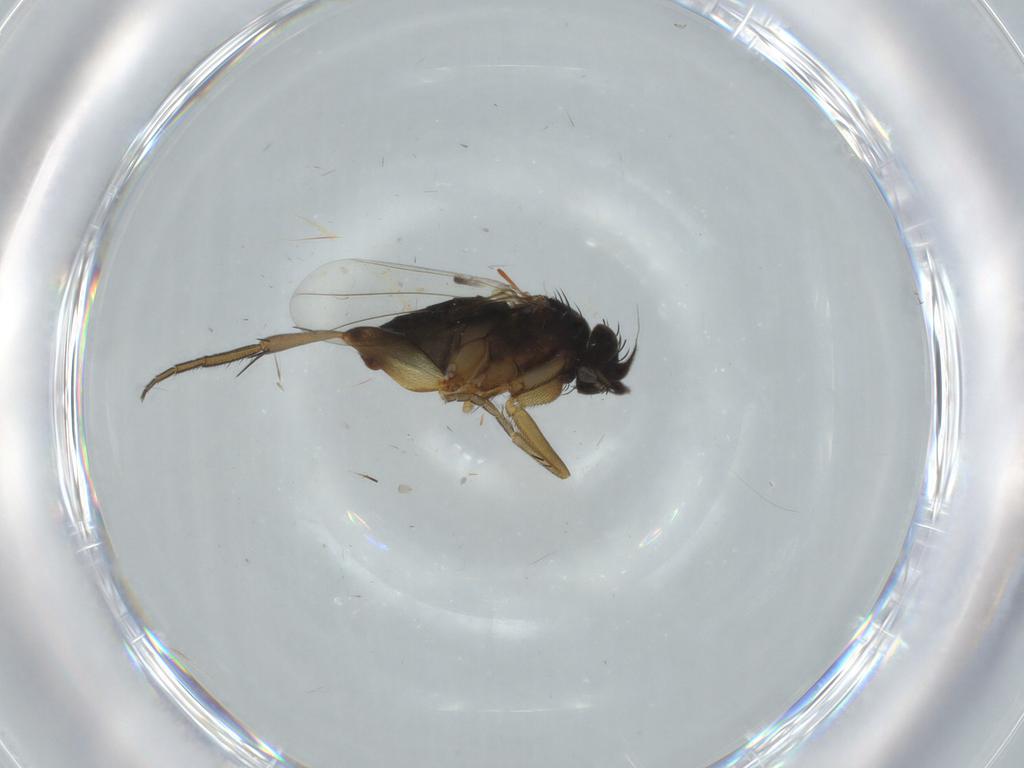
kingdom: Animalia
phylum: Arthropoda
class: Insecta
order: Diptera
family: Phoridae
